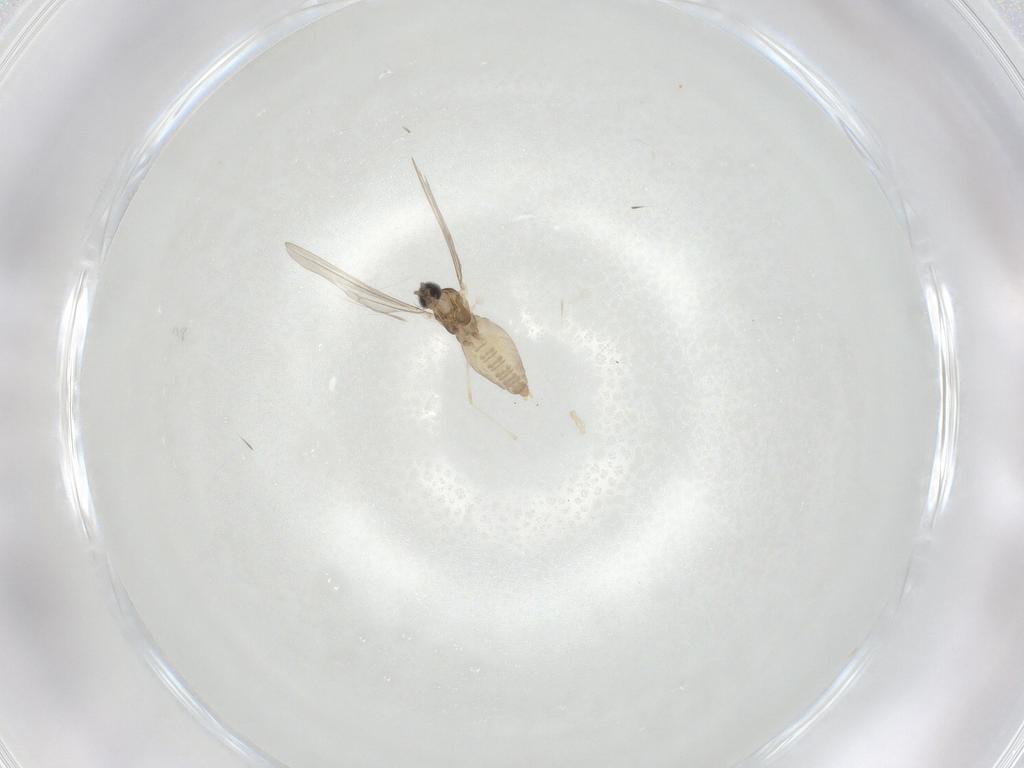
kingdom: Animalia
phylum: Arthropoda
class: Insecta
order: Diptera
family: Cecidomyiidae
